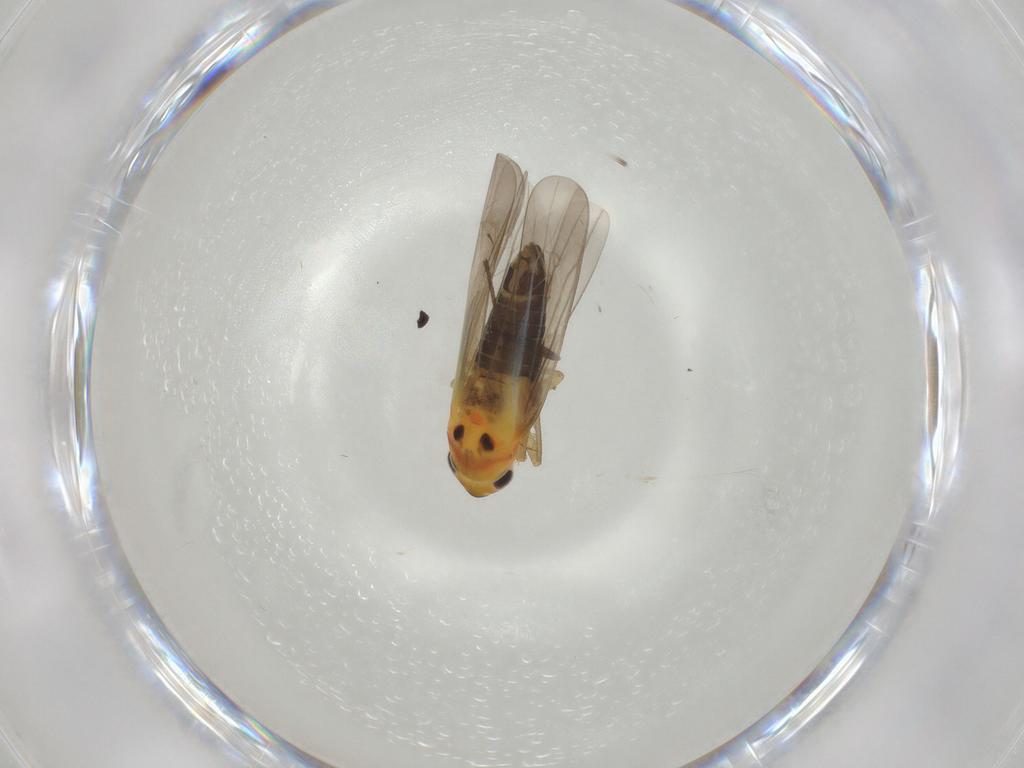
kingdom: Animalia
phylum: Arthropoda
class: Insecta
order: Hemiptera
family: Cicadellidae
